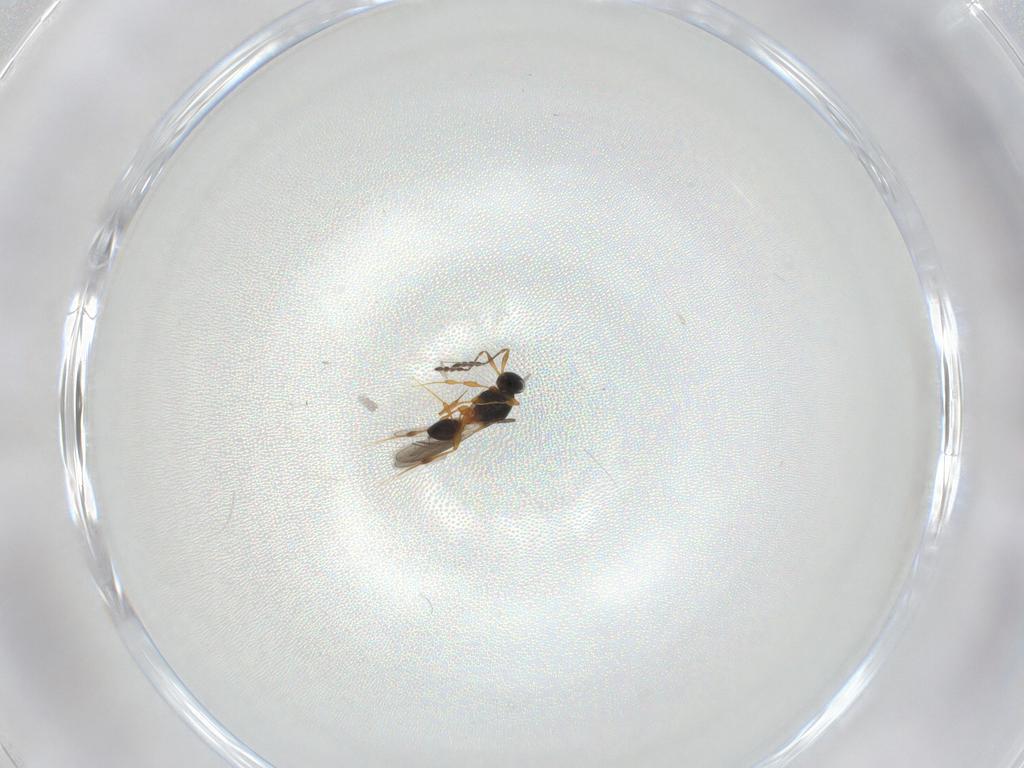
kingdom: Animalia
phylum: Arthropoda
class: Insecta
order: Hymenoptera
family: Platygastridae
